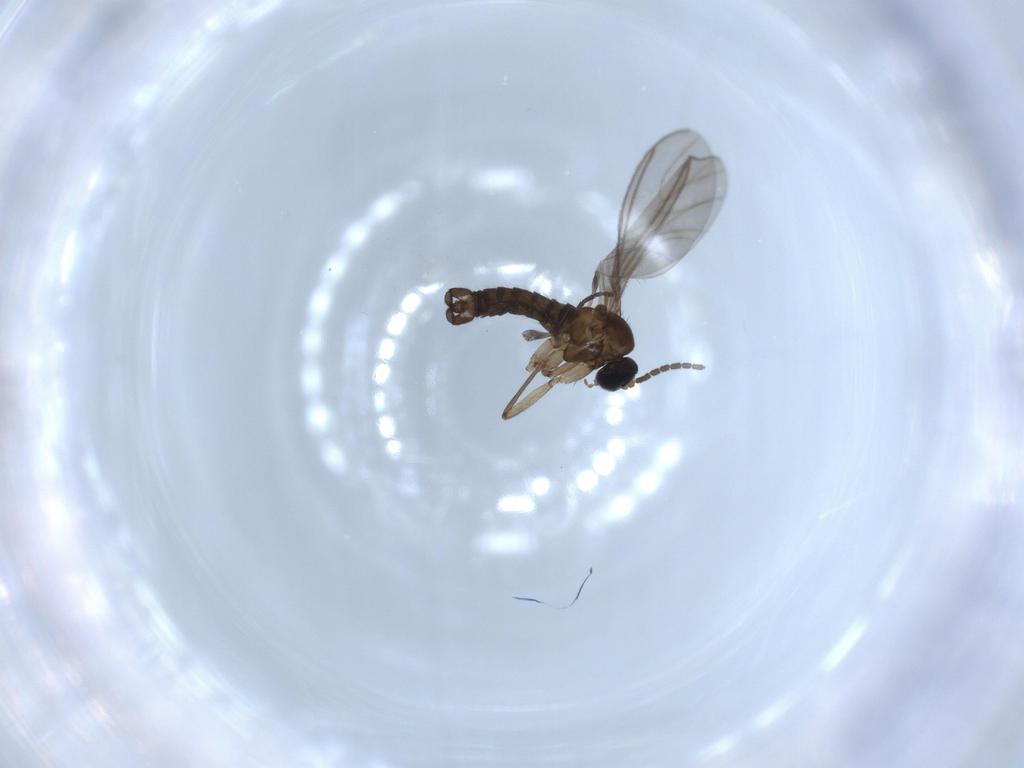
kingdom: Animalia
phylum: Arthropoda
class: Insecta
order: Diptera
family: Sciaridae
